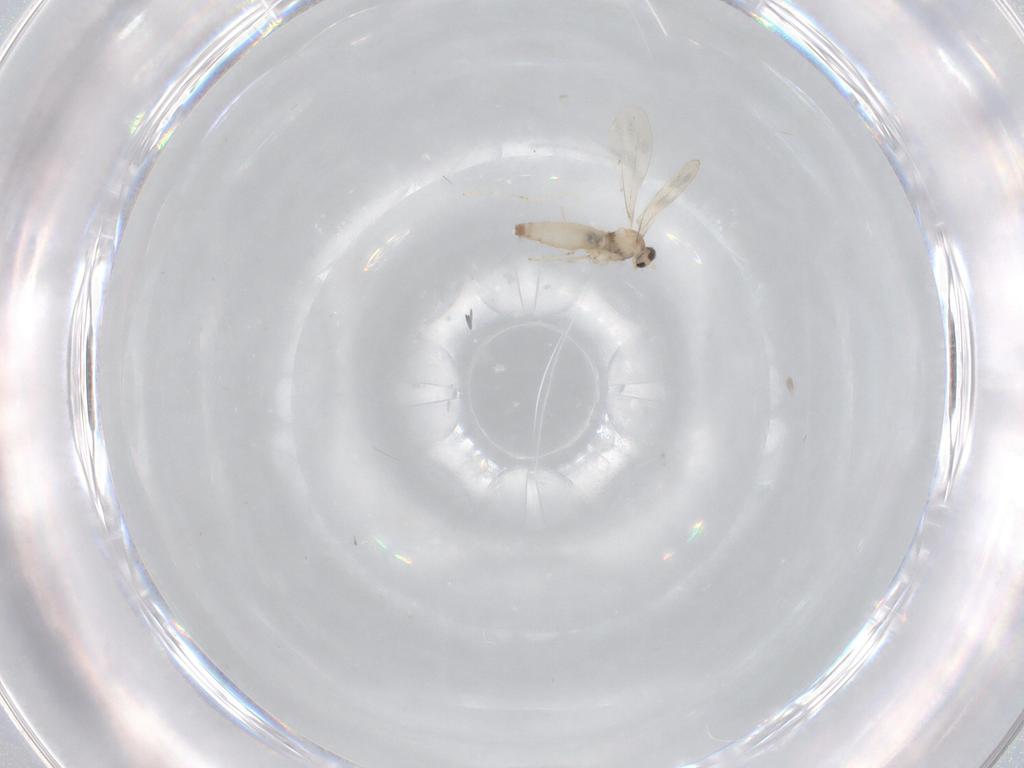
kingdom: Animalia
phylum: Arthropoda
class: Insecta
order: Diptera
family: Cecidomyiidae
